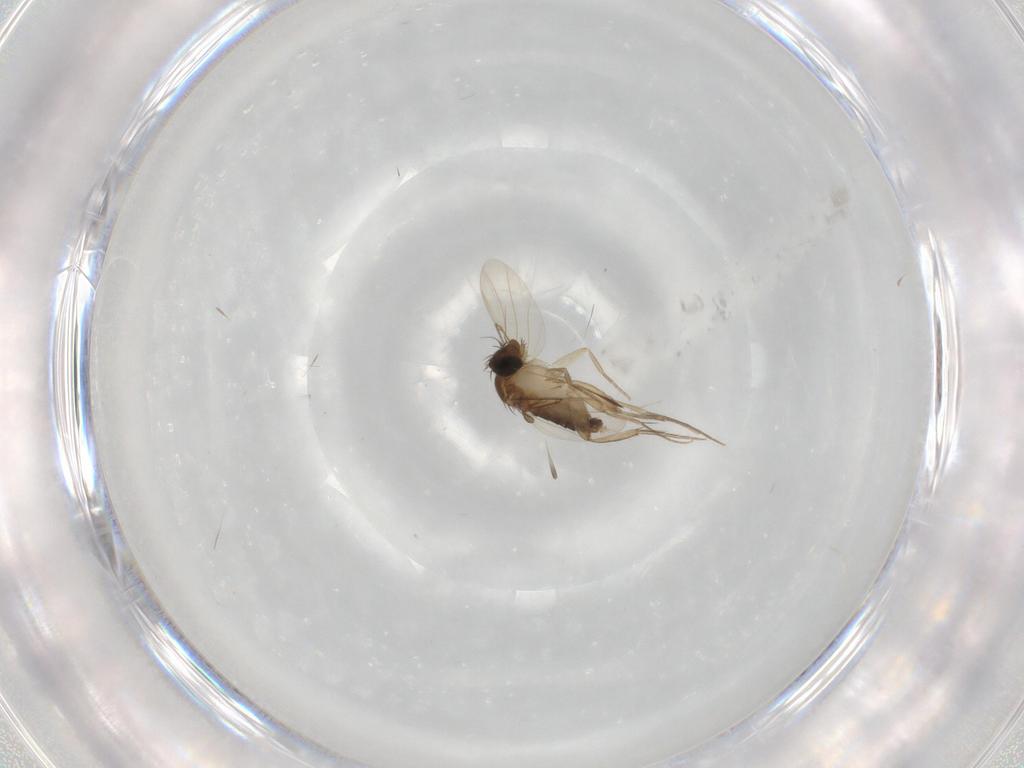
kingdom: Animalia
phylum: Arthropoda
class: Insecta
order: Diptera
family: Phoridae
